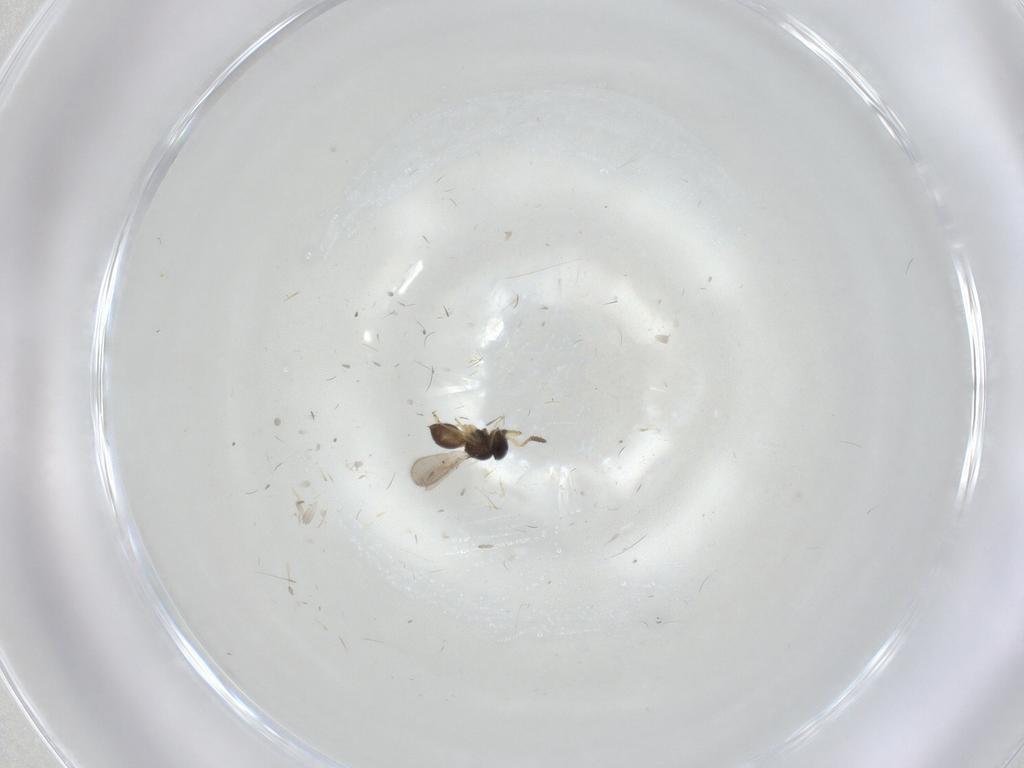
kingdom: Animalia
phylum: Arthropoda
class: Insecta
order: Hymenoptera
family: Scelionidae
